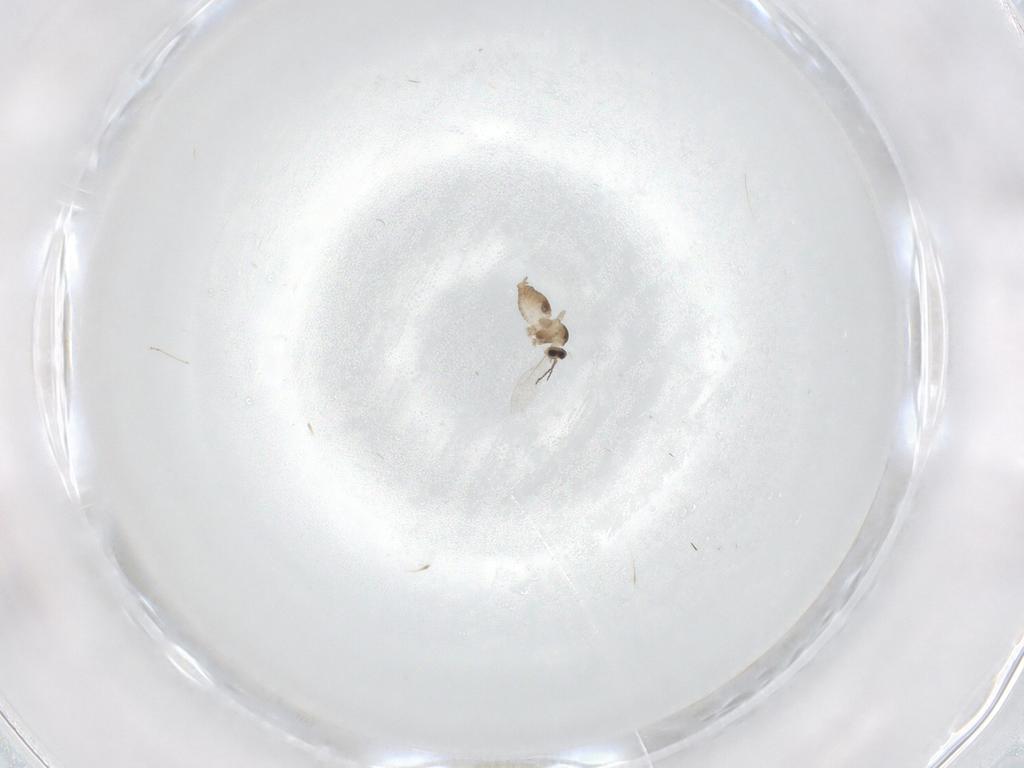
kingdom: Animalia
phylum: Arthropoda
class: Insecta
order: Diptera
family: Cecidomyiidae
